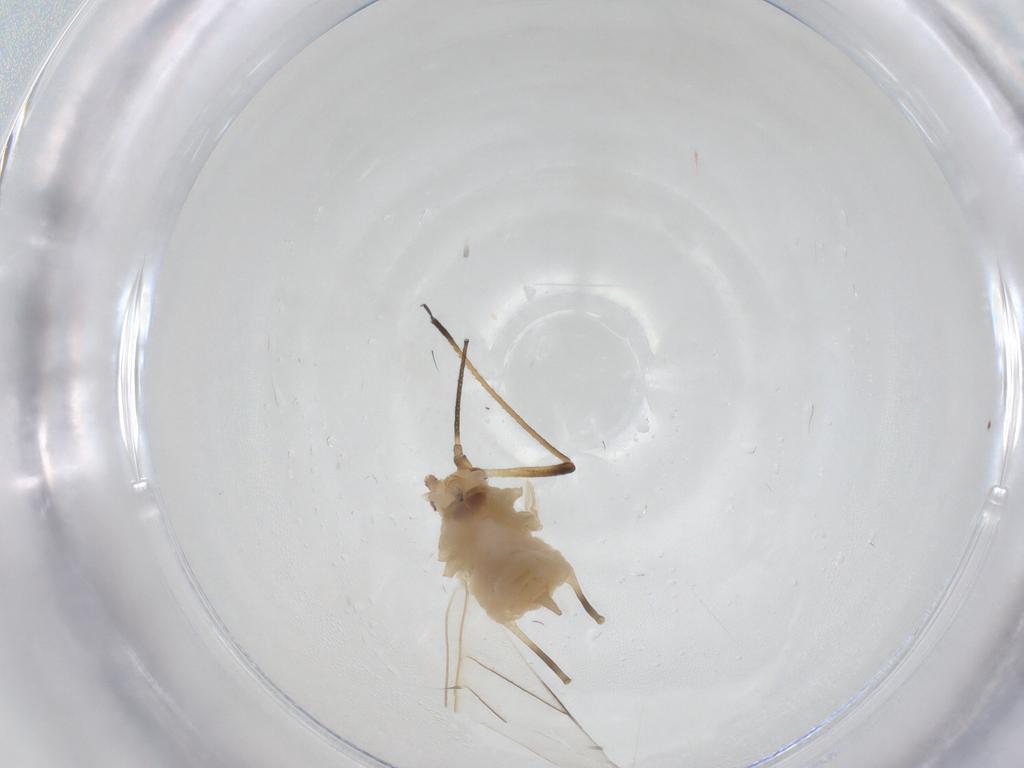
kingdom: Animalia
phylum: Arthropoda
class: Insecta
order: Hemiptera
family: Aphididae
